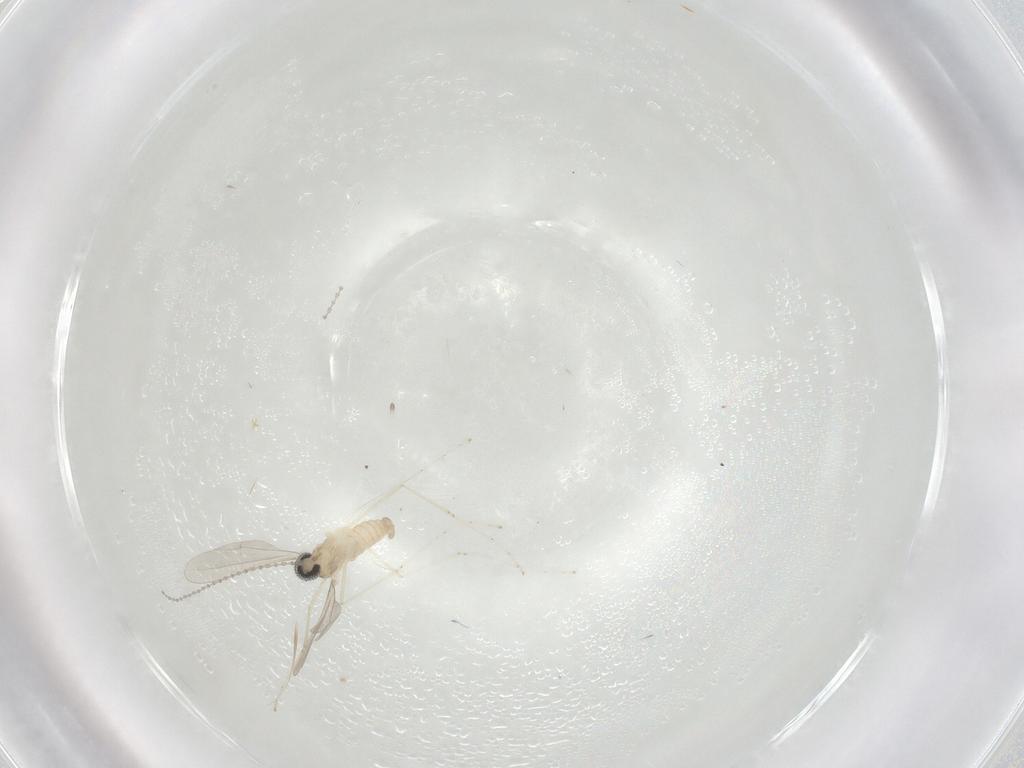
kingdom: Animalia
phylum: Arthropoda
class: Insecta
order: Diptera
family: Cecidomyiidae
